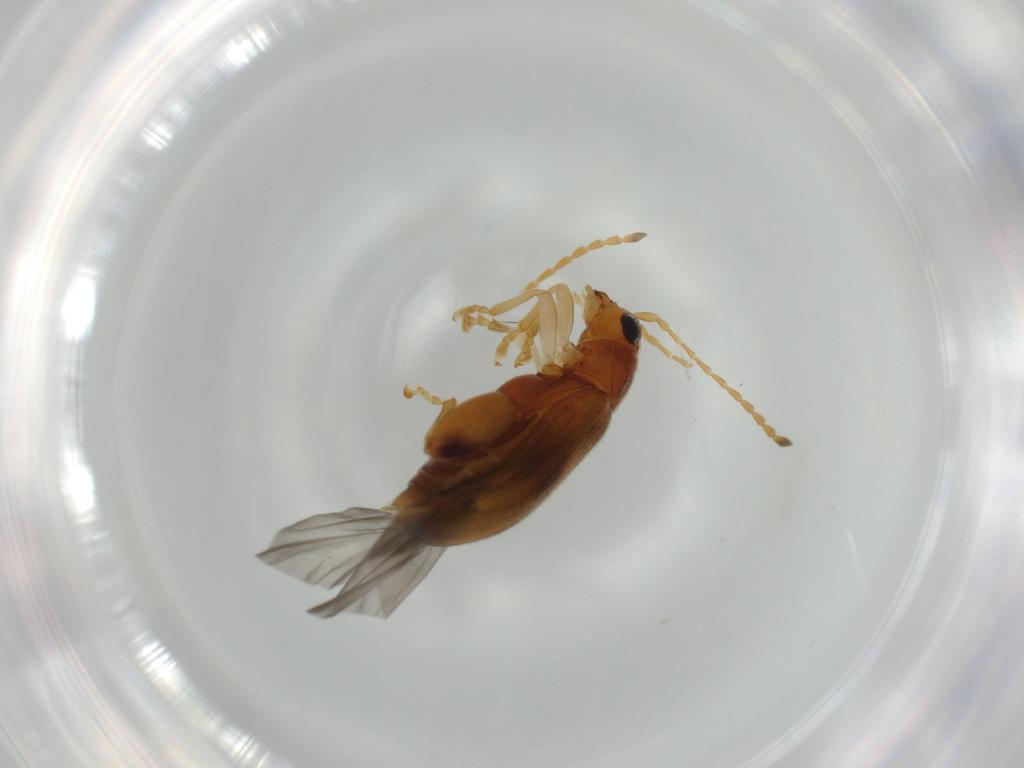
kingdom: Animalia
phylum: Arthropoda
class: Insecta
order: Coleoptera
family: Chrysomelidae
